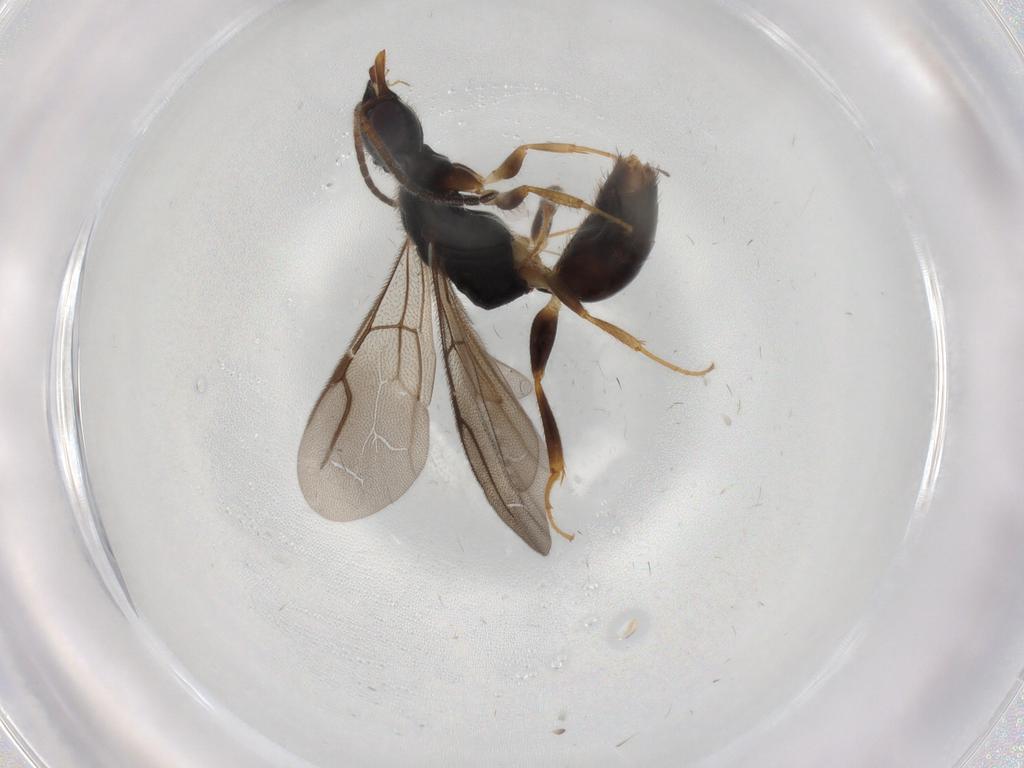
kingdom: Animalia
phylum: Arthropoda
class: Insecta
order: Hymenoptera
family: Bethylidae
